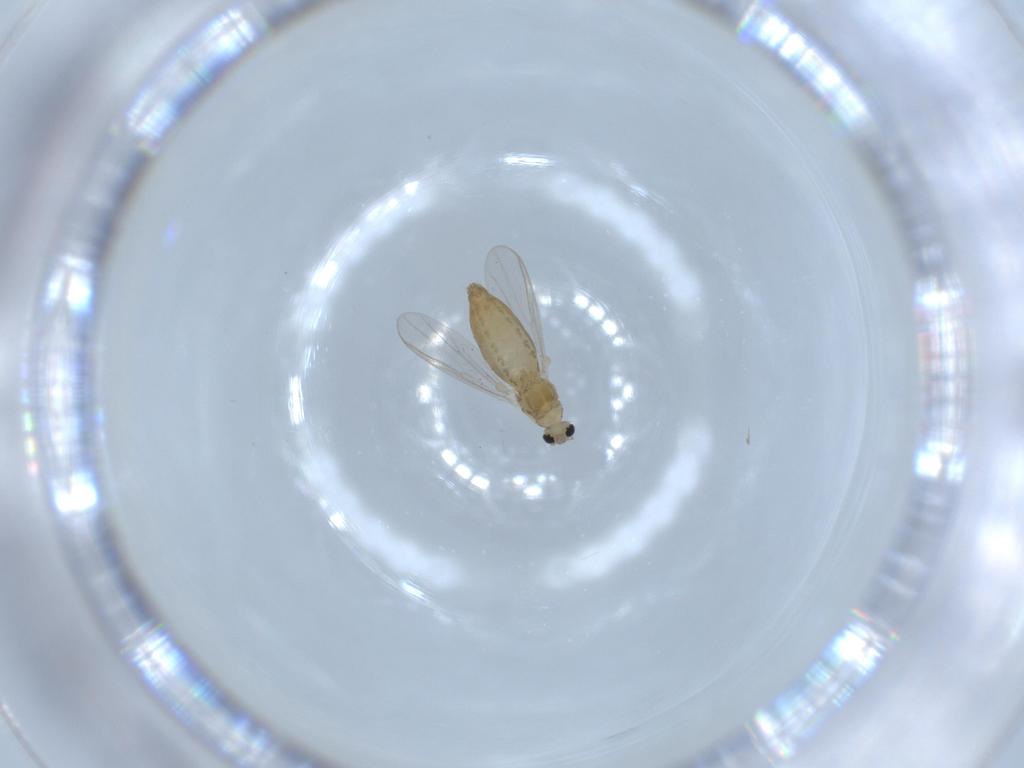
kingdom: Animalia
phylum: Arthropoda
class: Insecta
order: Diptera
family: Chironomidae
